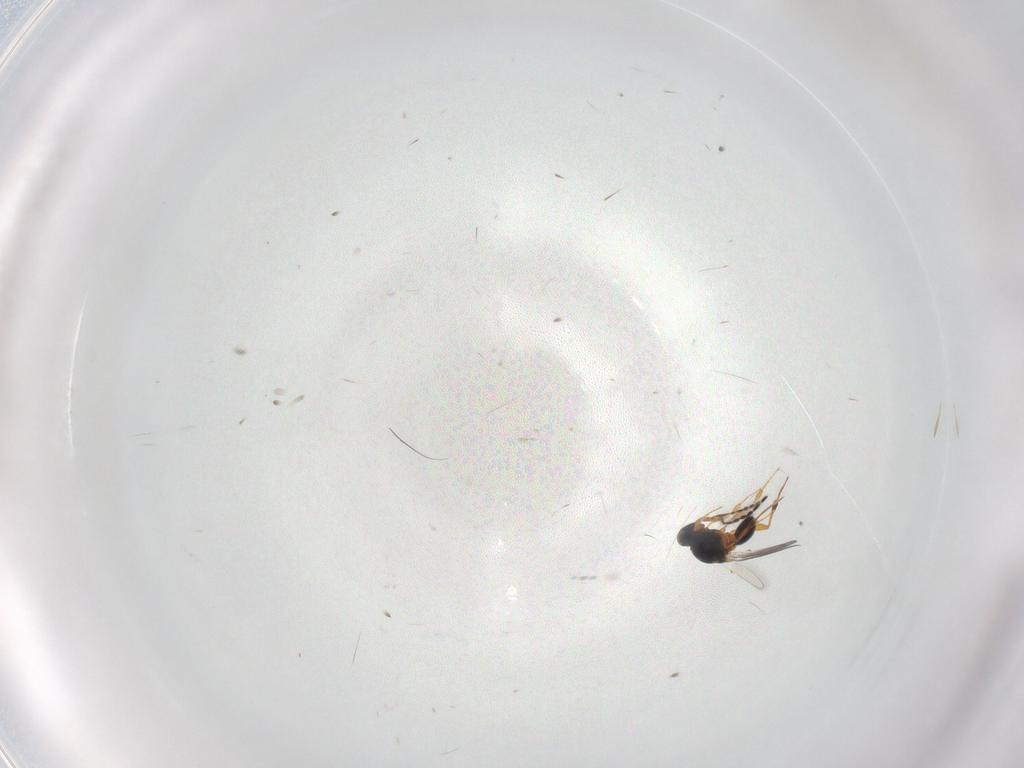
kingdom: Animalia
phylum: Arthropoda
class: Insecta
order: Hymenoptera
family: Platygastridae
